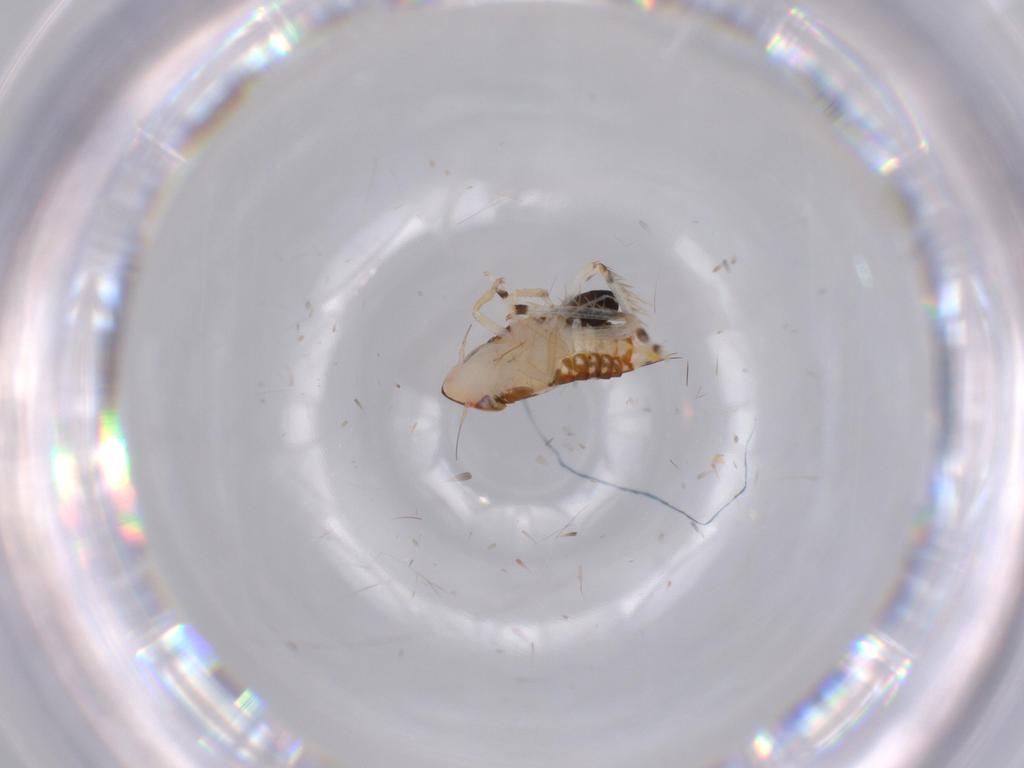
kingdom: Animalia
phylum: Arthropoda
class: Insecta
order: Hemiptera
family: Cicadellidae
